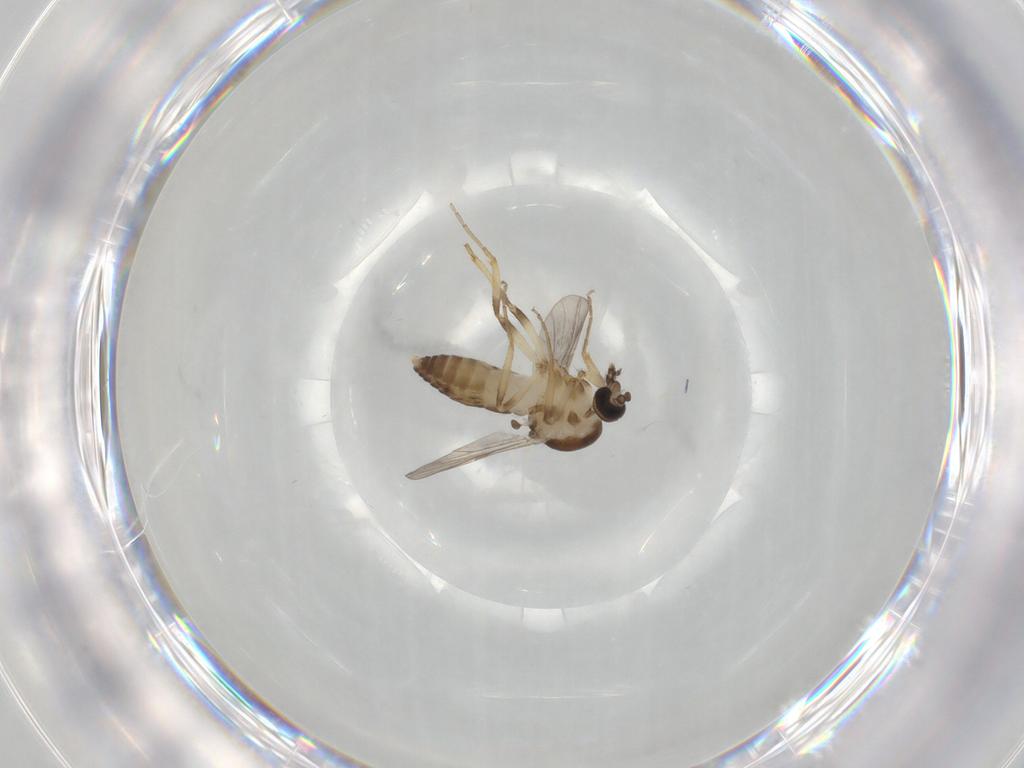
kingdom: Animalia
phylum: Arthropoda
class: Insecta
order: Diptera
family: Ceratopogonidae
